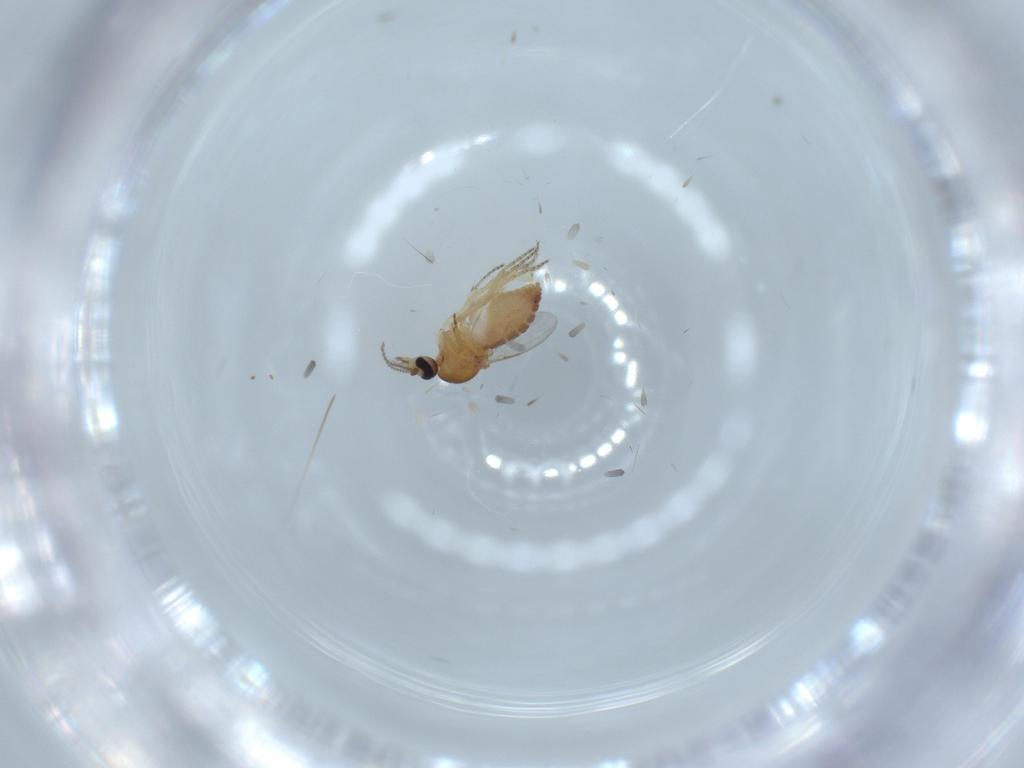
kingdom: Animalia
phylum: Arthropoda
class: Insecta
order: Diptera
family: Ceratopogonidae
